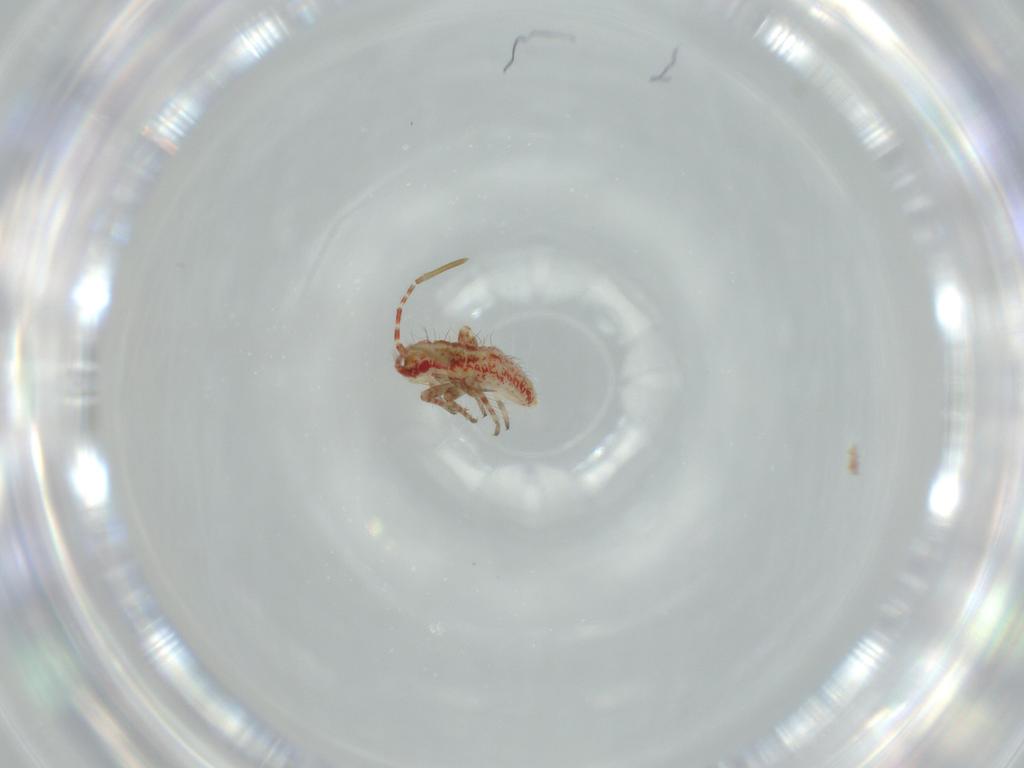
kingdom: Animalia
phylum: Arthropoda
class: Insecta
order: Hemiptera
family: Miridae
